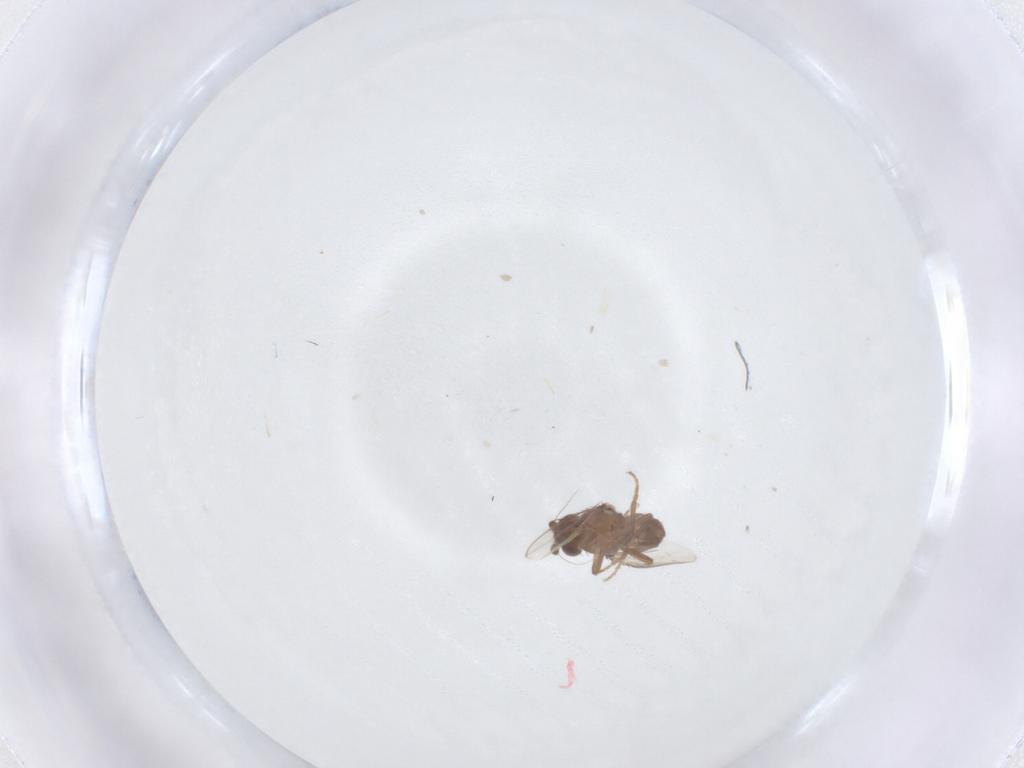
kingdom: Animalia
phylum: Arthropoda
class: Insecta
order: Diptera
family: Sphaeroceridae
